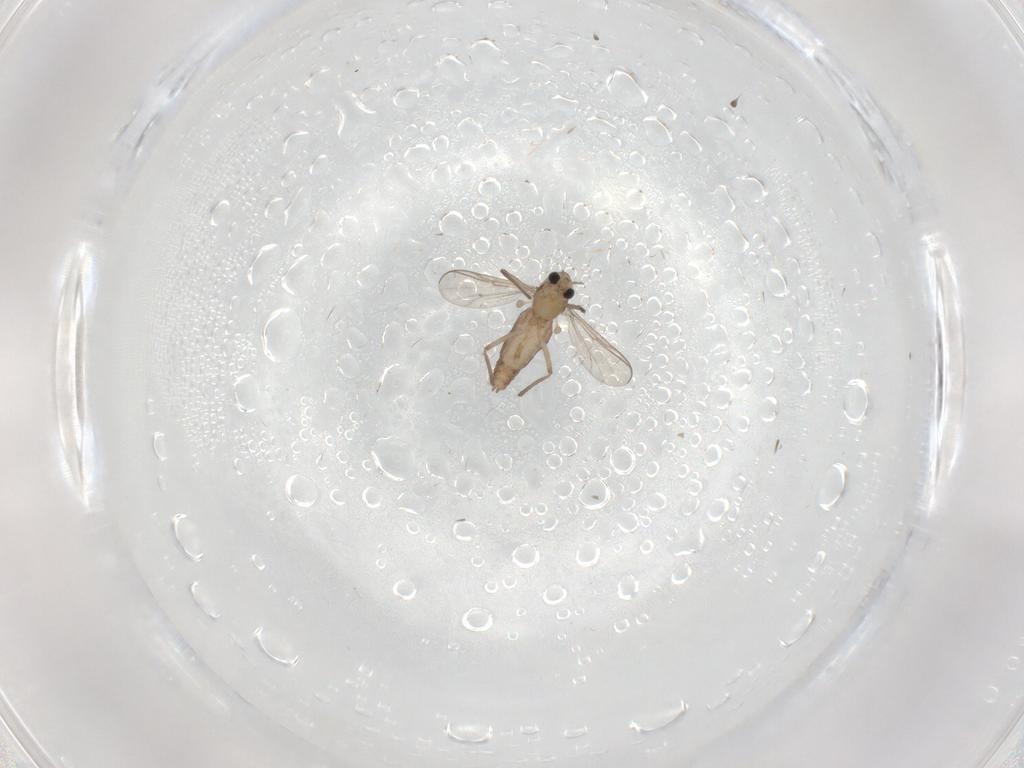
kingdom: Animalia
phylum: Arthropoda
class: Insecta
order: Diptera
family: Chironomidae
